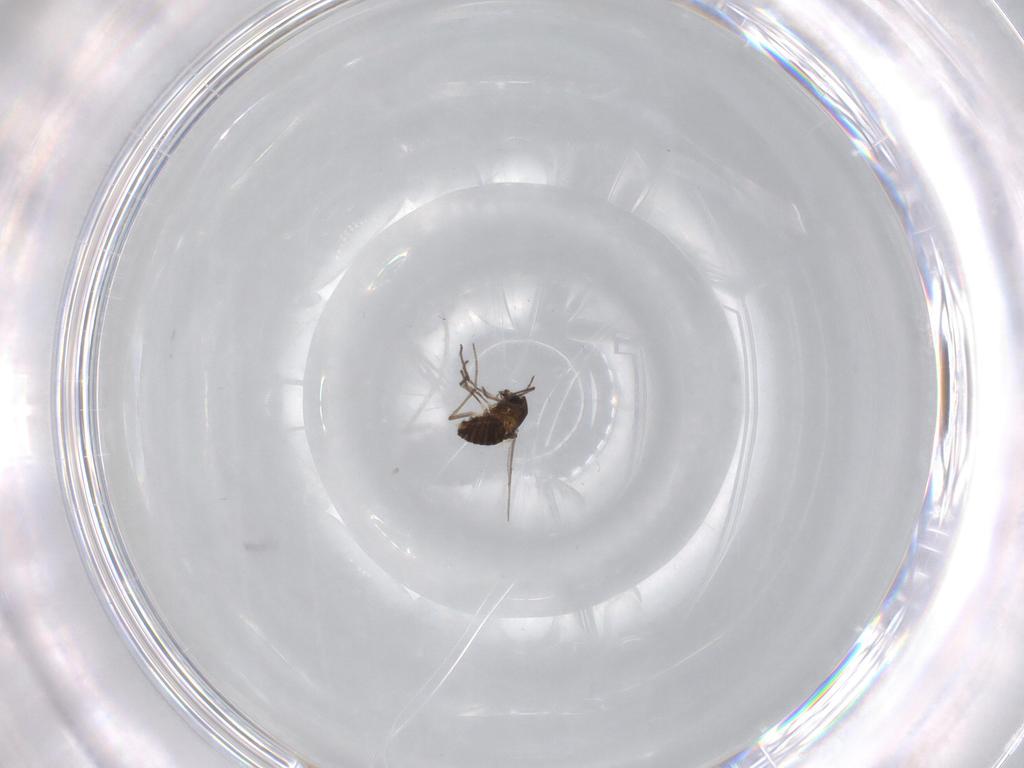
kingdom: Animalia
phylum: Arthropoda
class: Insecta
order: Diptera
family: Chironomidae
